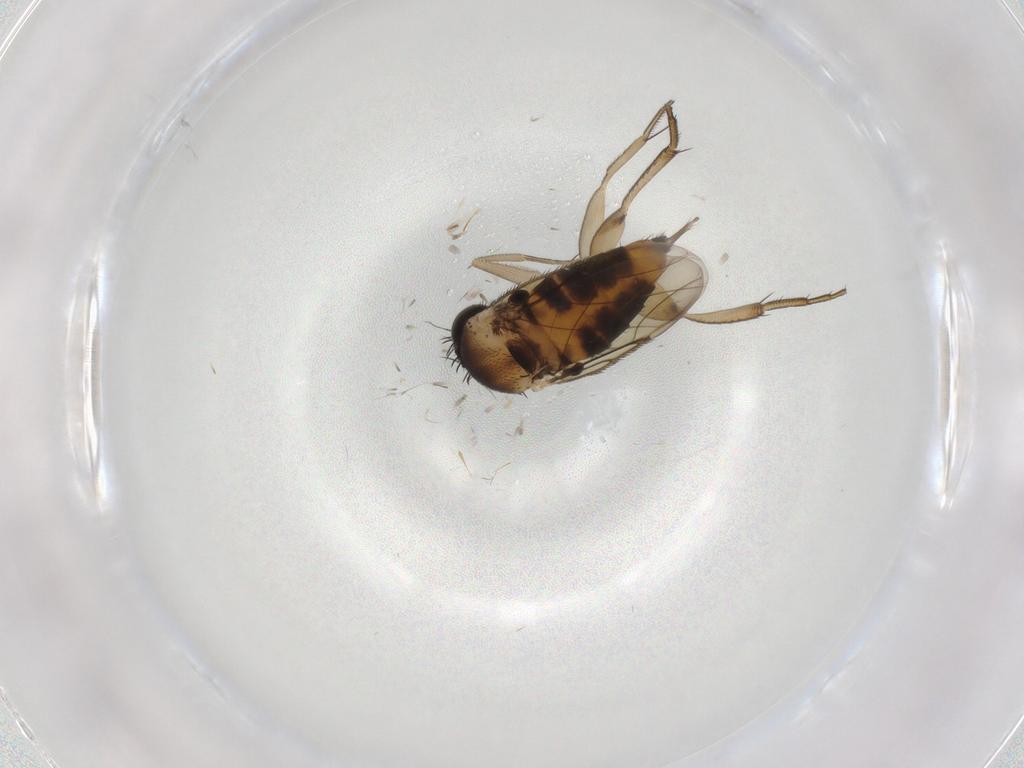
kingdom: Animalia
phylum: Arthropoda
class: Insecta
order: Diptera
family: Phoridae
